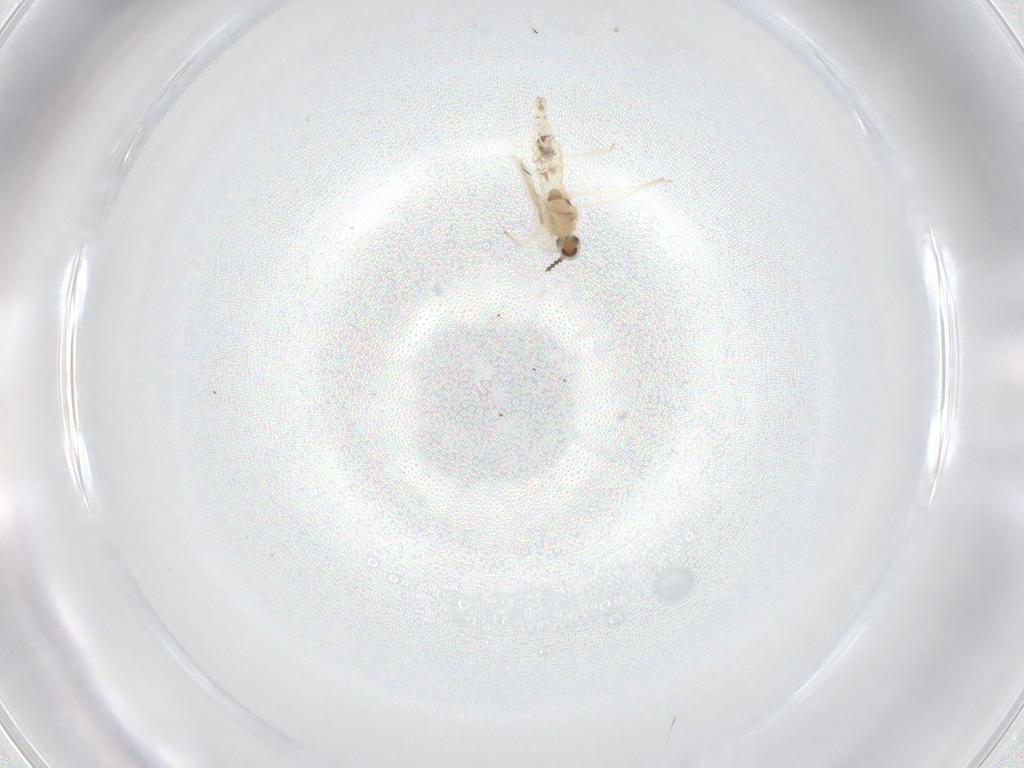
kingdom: Animalia
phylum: Arthropoda
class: Insecta
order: Diptera
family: Cecidomyiidae
